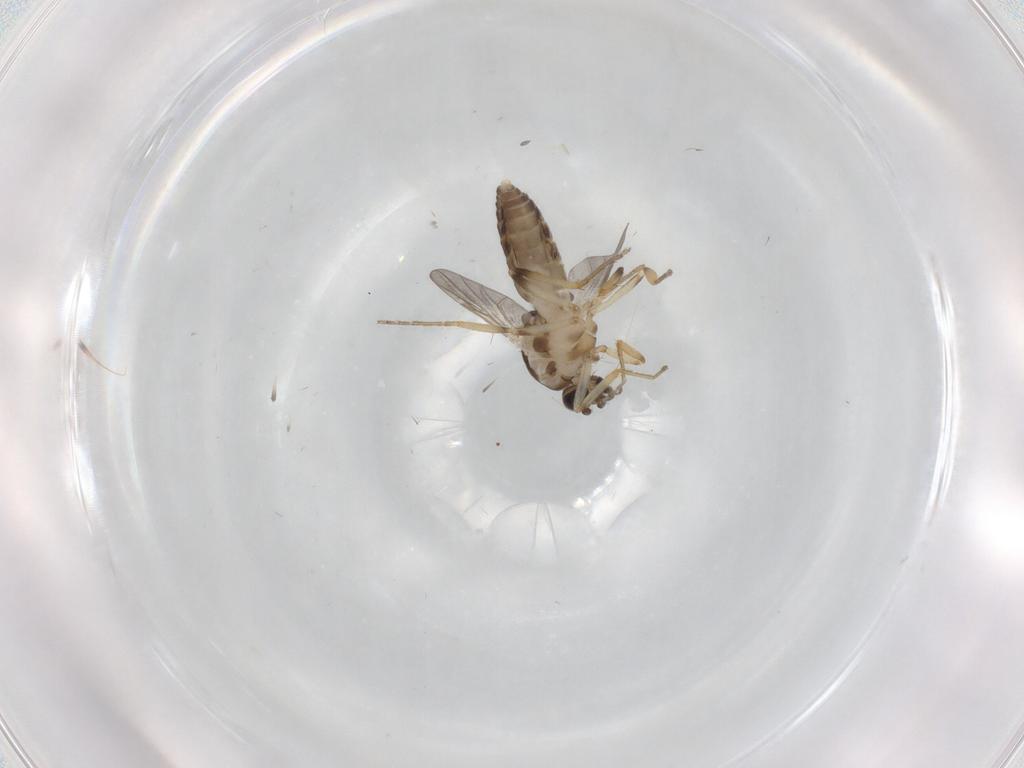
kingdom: Animalia
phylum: Arthropoda
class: Insecta
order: Diptera
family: Ceratopogonidae
